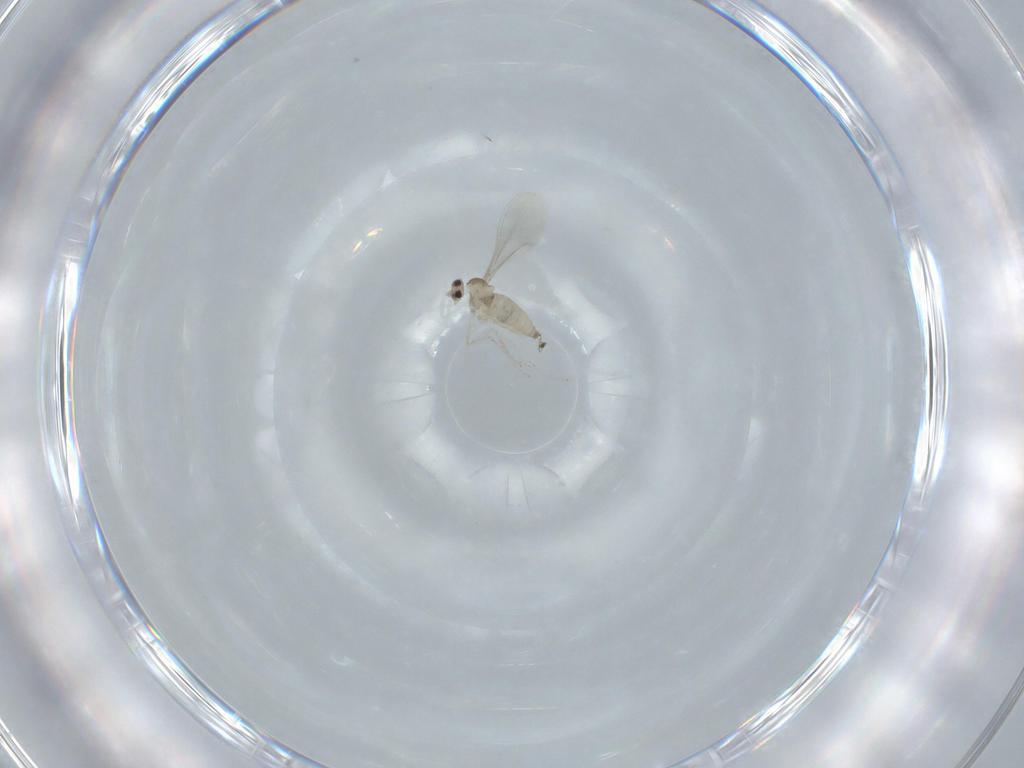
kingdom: Animalia
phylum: Arthropoda
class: Insecta
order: Diptera
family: Cecidomyiidae
